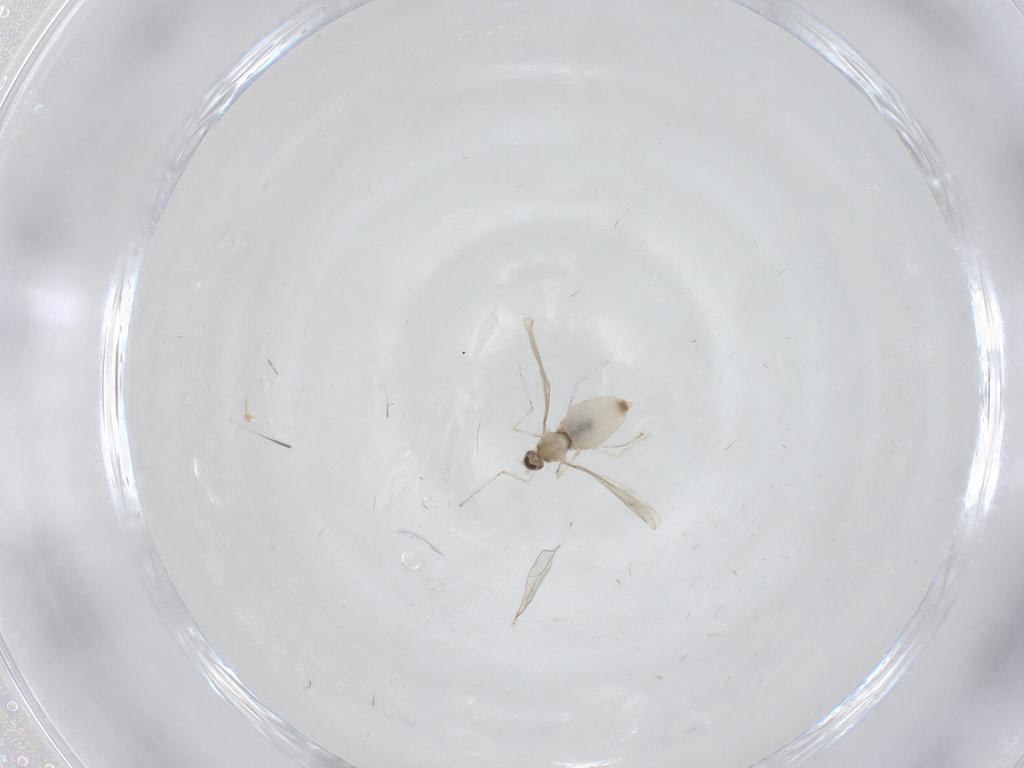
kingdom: Animalia
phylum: Arthropoda
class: Insecta
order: Diptera
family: Cecidomyiidae
